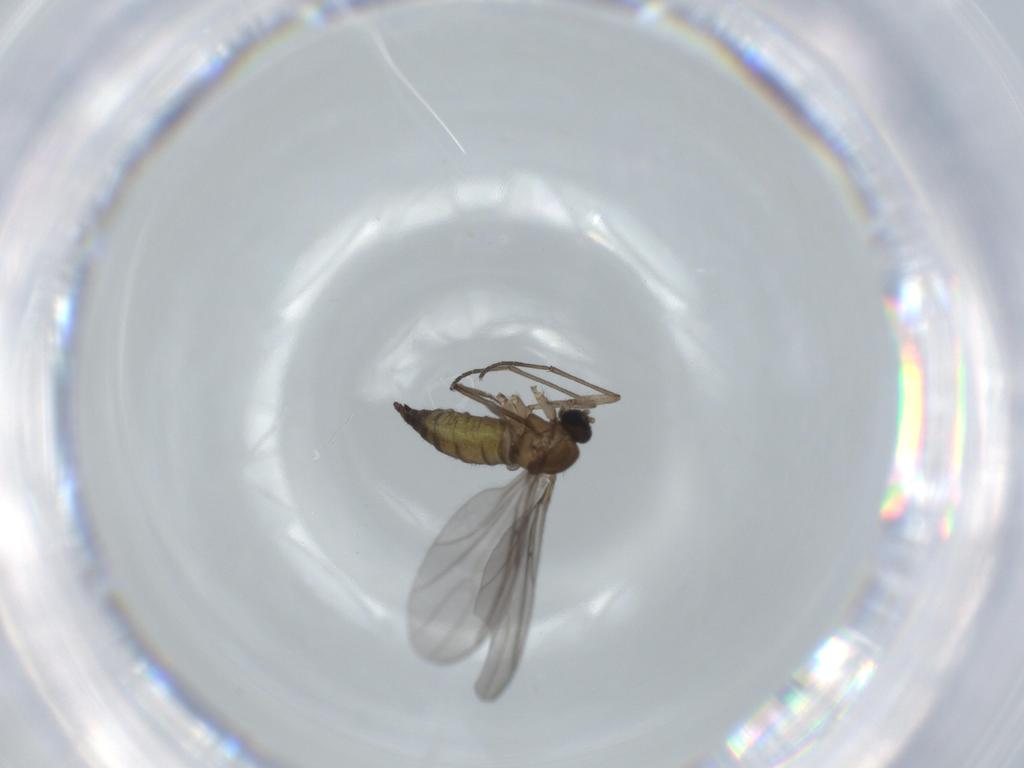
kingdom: Animalia
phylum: Arthropoda
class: Insecta
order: Diptera
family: Sciaridae
